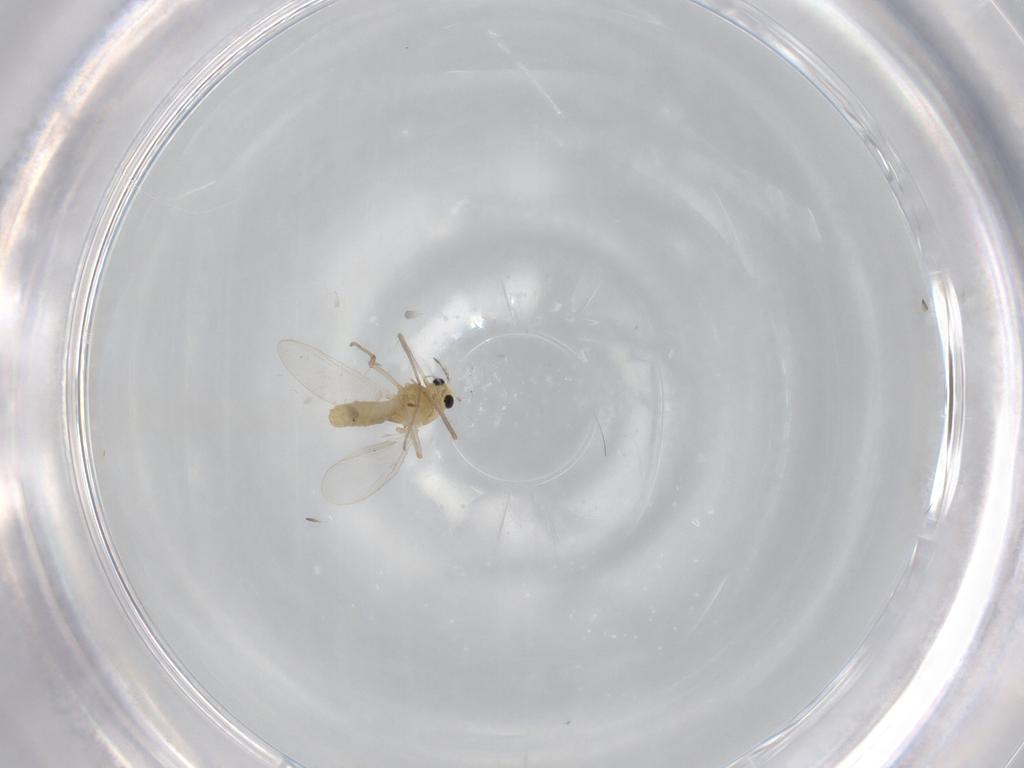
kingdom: Animalia
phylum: Arthropoda
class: Insecta
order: Diptera
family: Chironomidae
